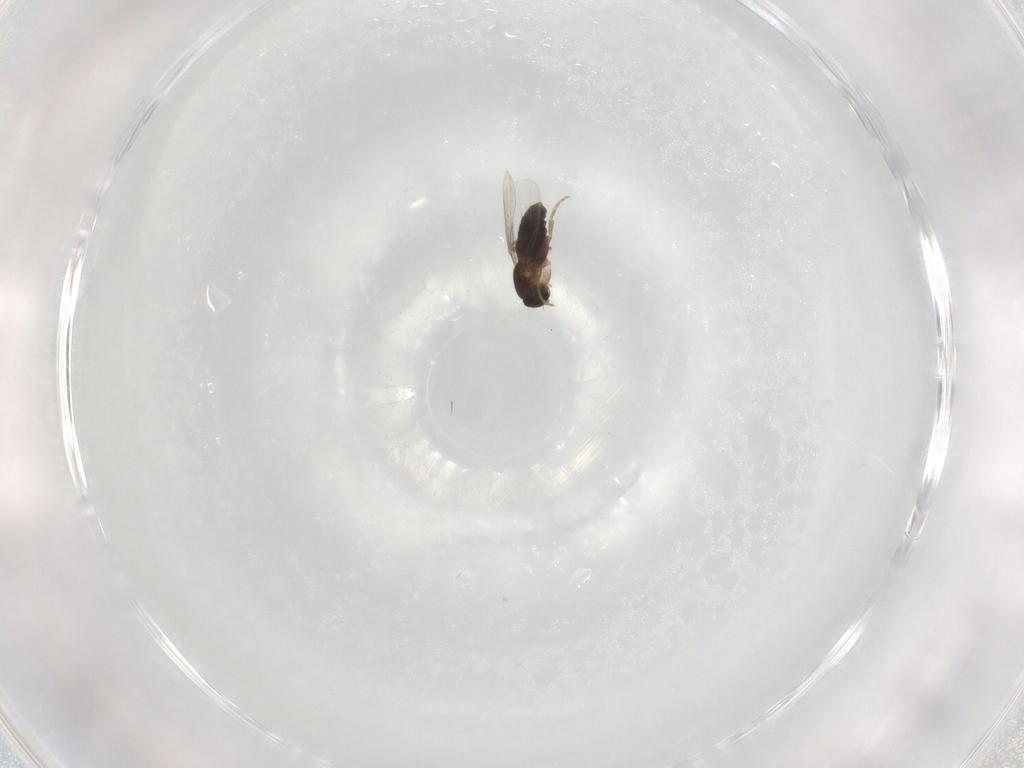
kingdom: Animalia
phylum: Arthropoda
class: Insecta
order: Diptera
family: Phoridae
